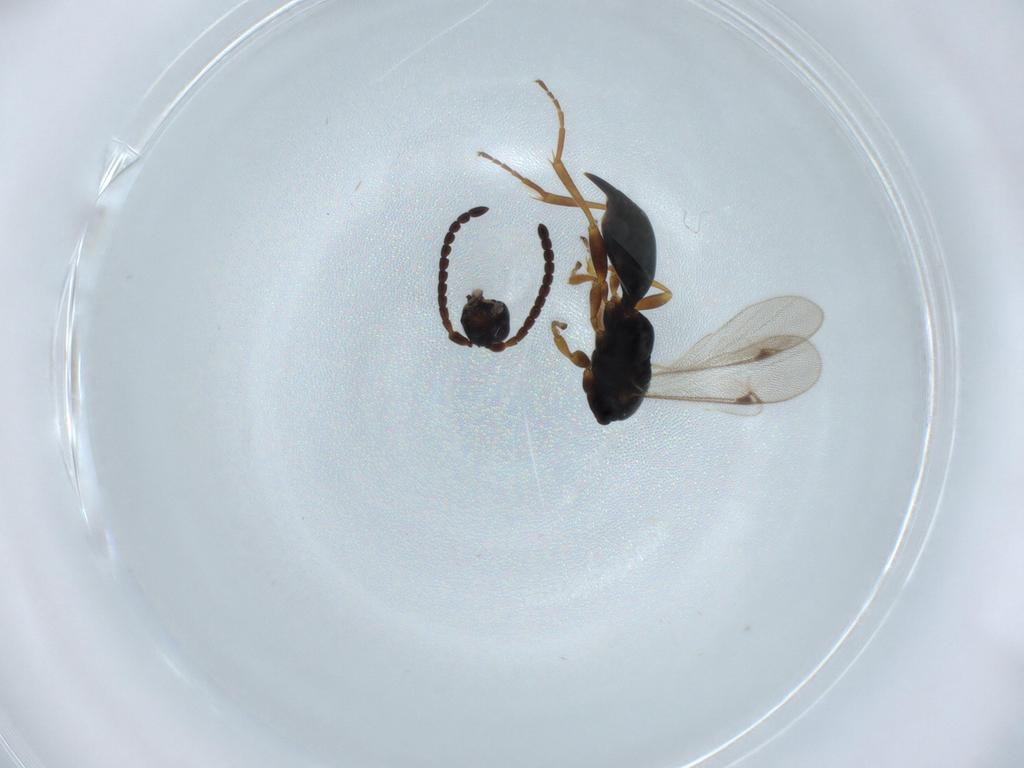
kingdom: Animalia
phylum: Arthropoda
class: Insecta
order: Hymenoptera
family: Proctotrupidae
